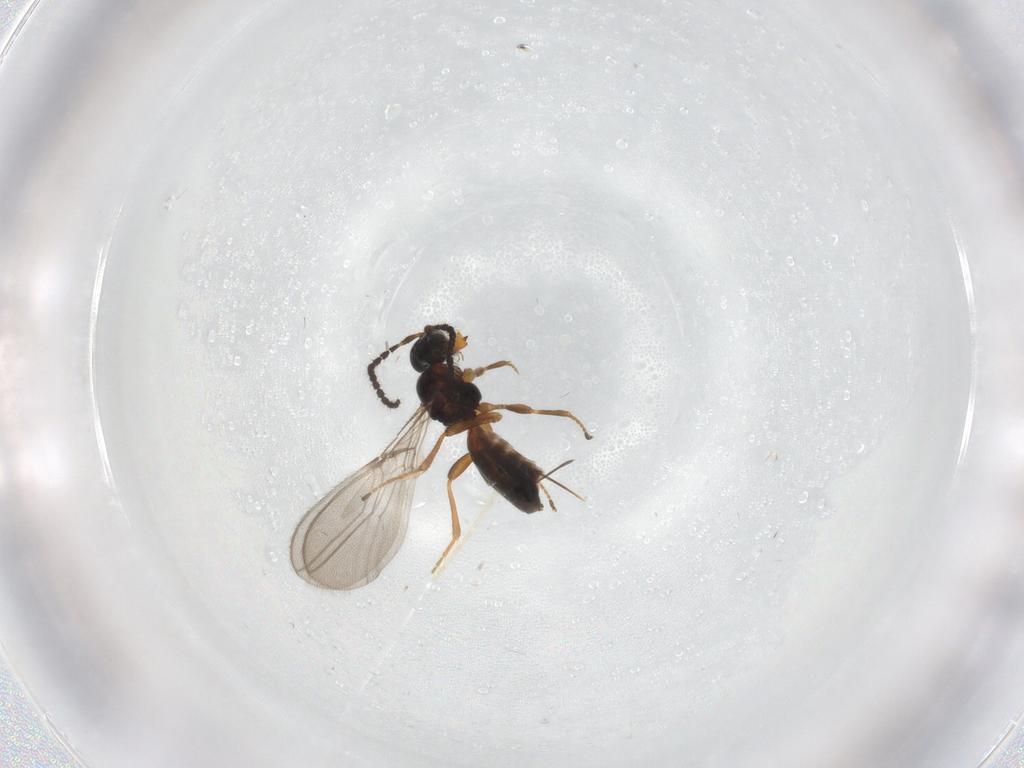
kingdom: Animalia
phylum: Arthropoda
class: Insecta
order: Hymenoptera
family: Braconidae
